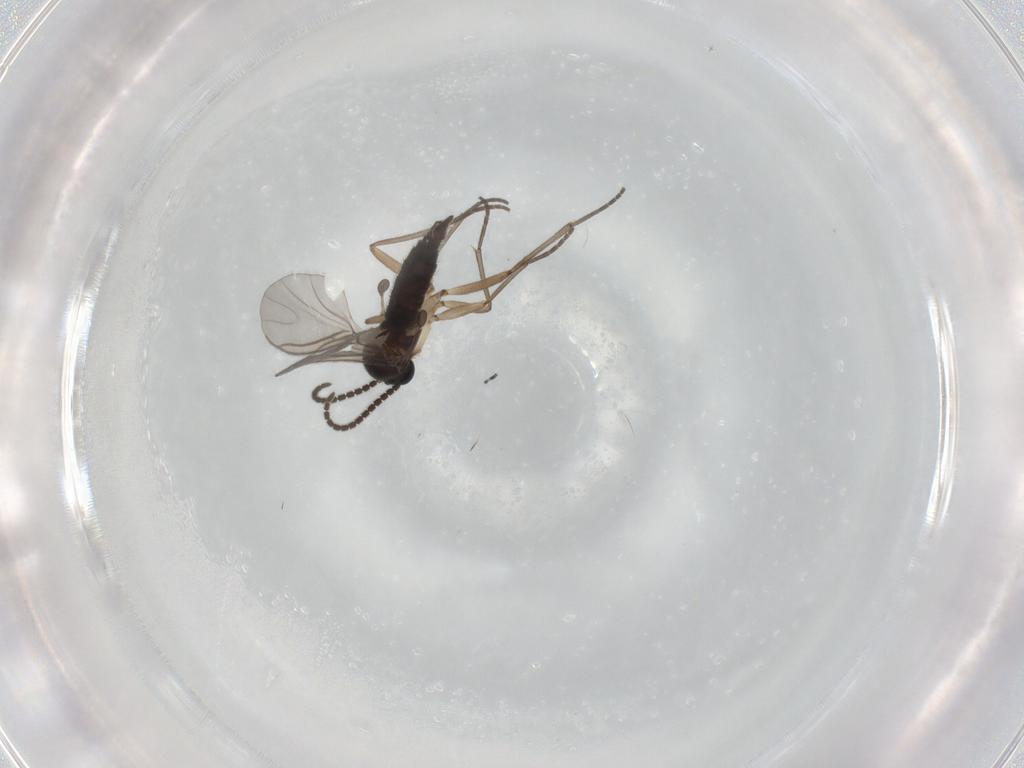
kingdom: Animalia
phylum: Arthropoda
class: Insecta
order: Diptera
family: Sciaridae
